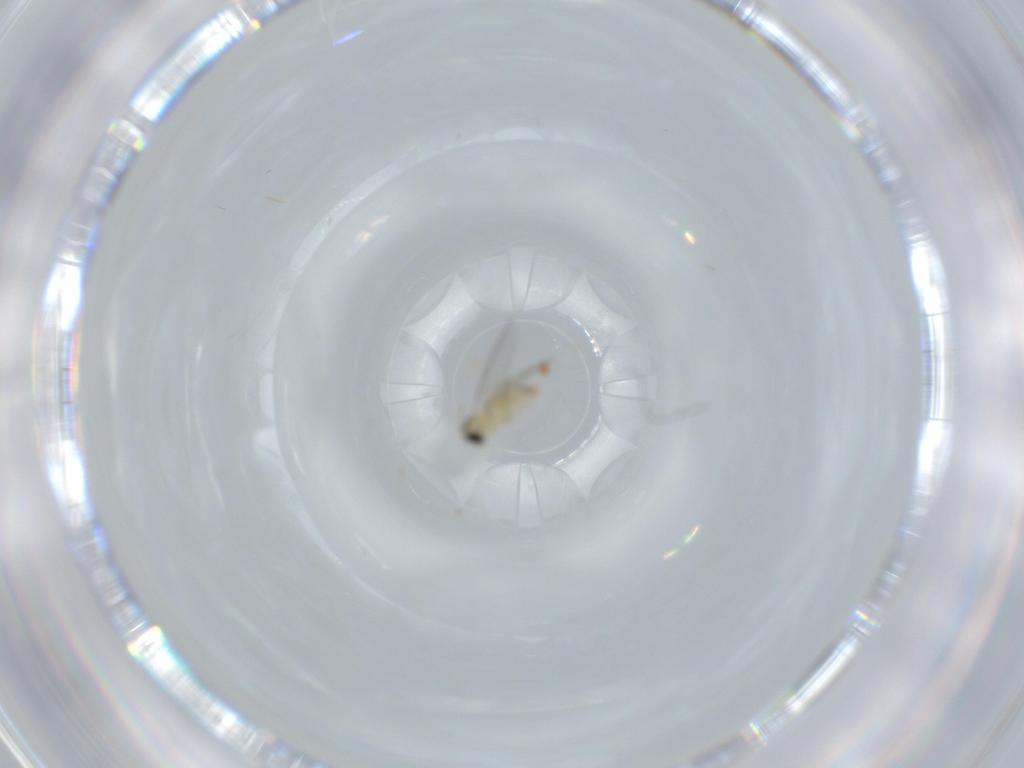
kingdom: Animalia
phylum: Arthropoda
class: Insecta
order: Diptera
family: Cecidomyiidae
